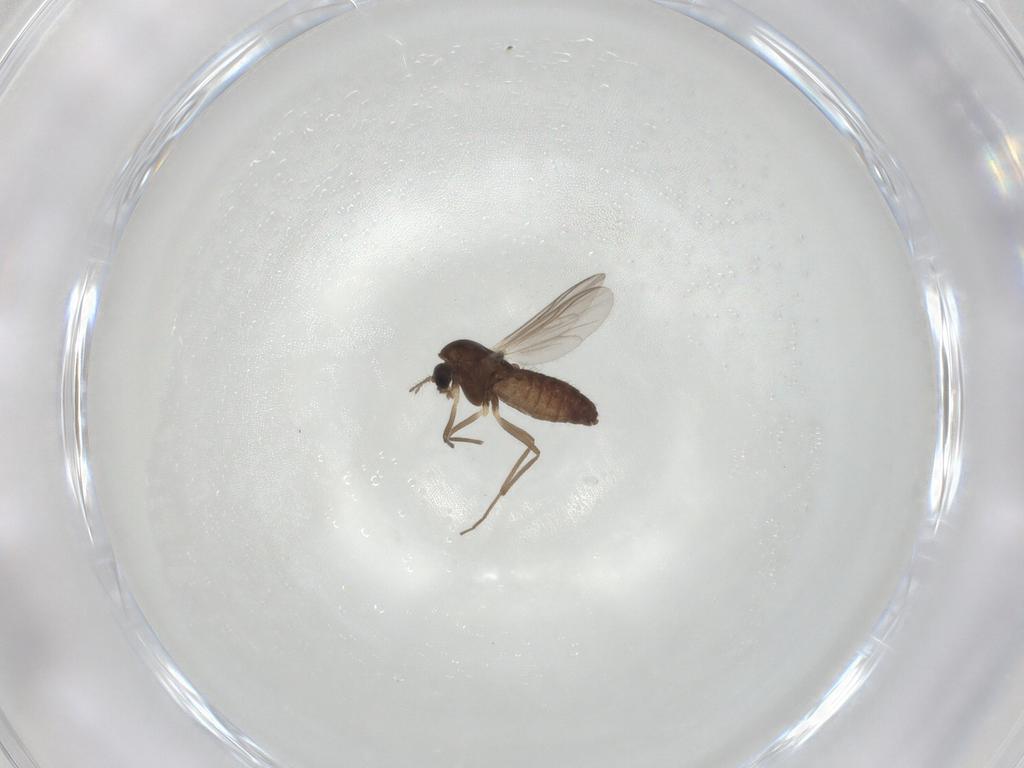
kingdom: Animalia
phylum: Arthropoda
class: Insecta
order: Diptera
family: Chironomidae
